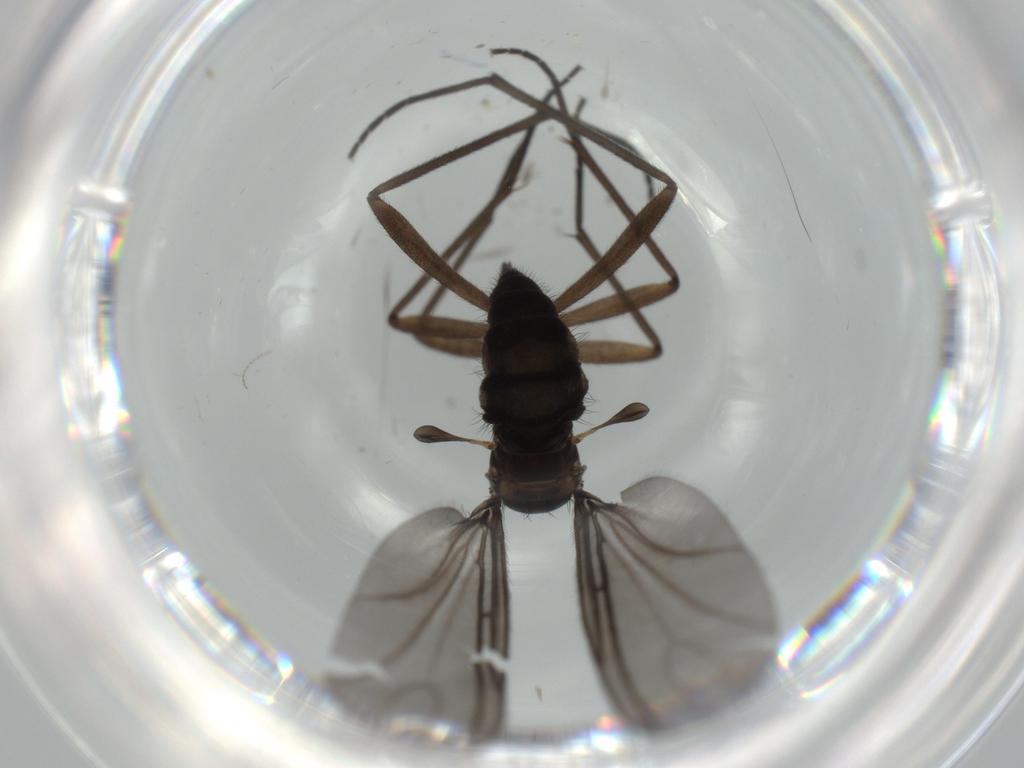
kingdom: Animalia
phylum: Arthropoda
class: Insecta
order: Diptera
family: Sciaridae
